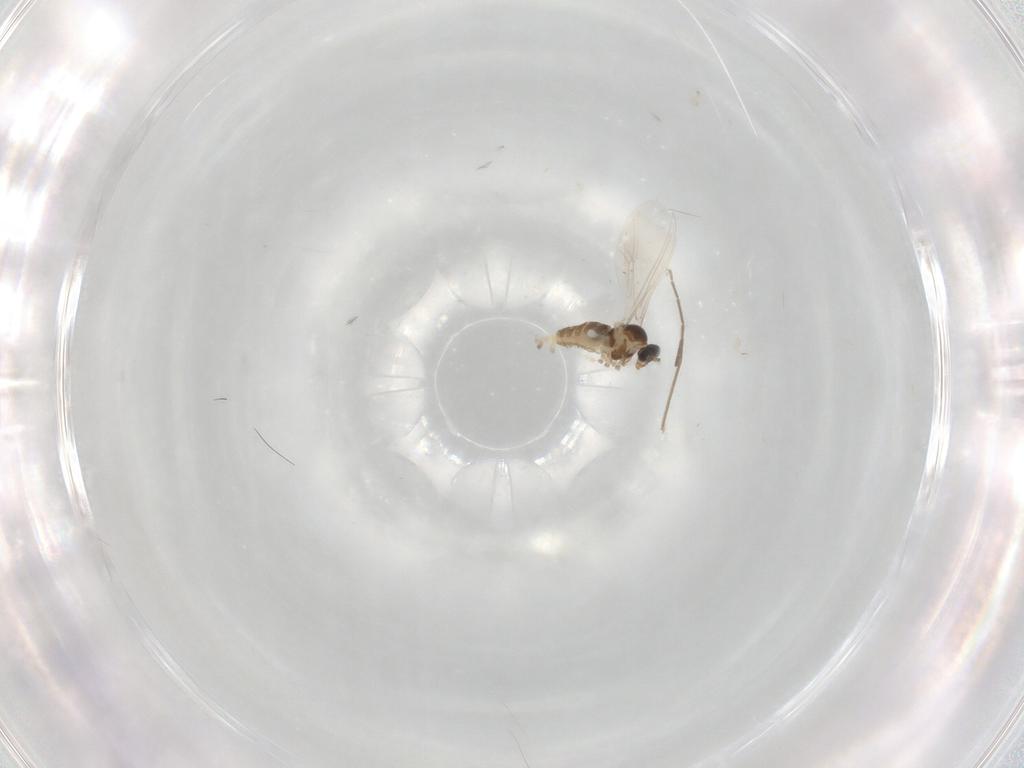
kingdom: Animalia
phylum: Arthropoda
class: Insecta
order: Diptera
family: Cecidomyiidae
